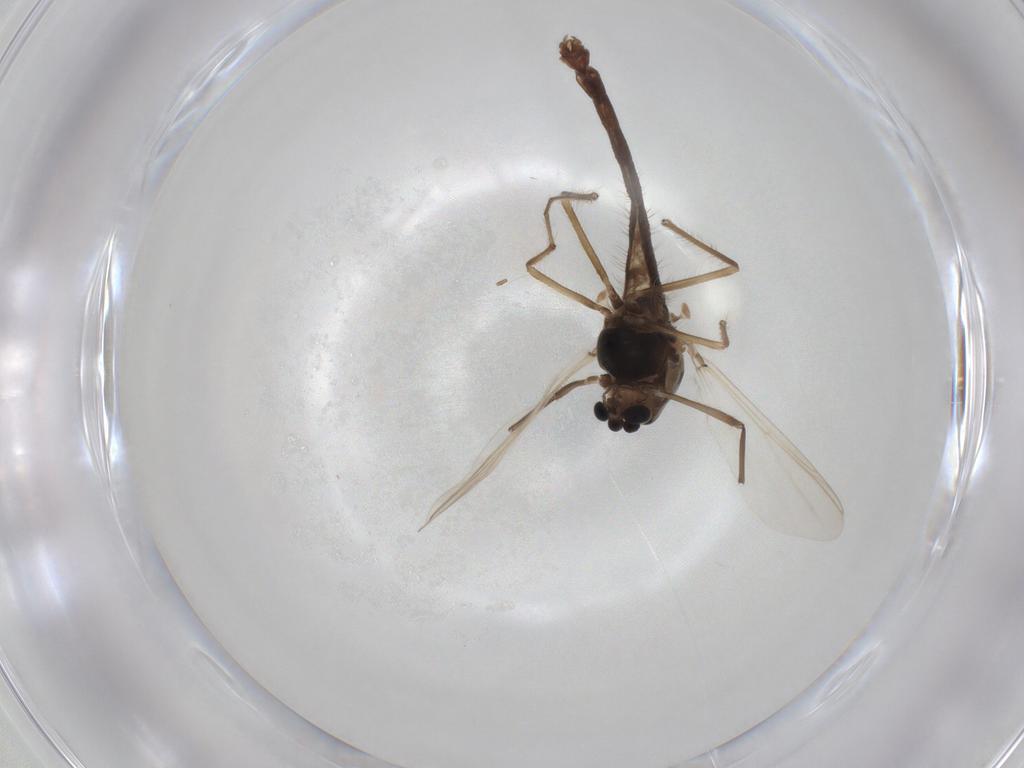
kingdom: Animalia
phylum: Arthropoda
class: Insecta
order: Diptera
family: Chironomidae
